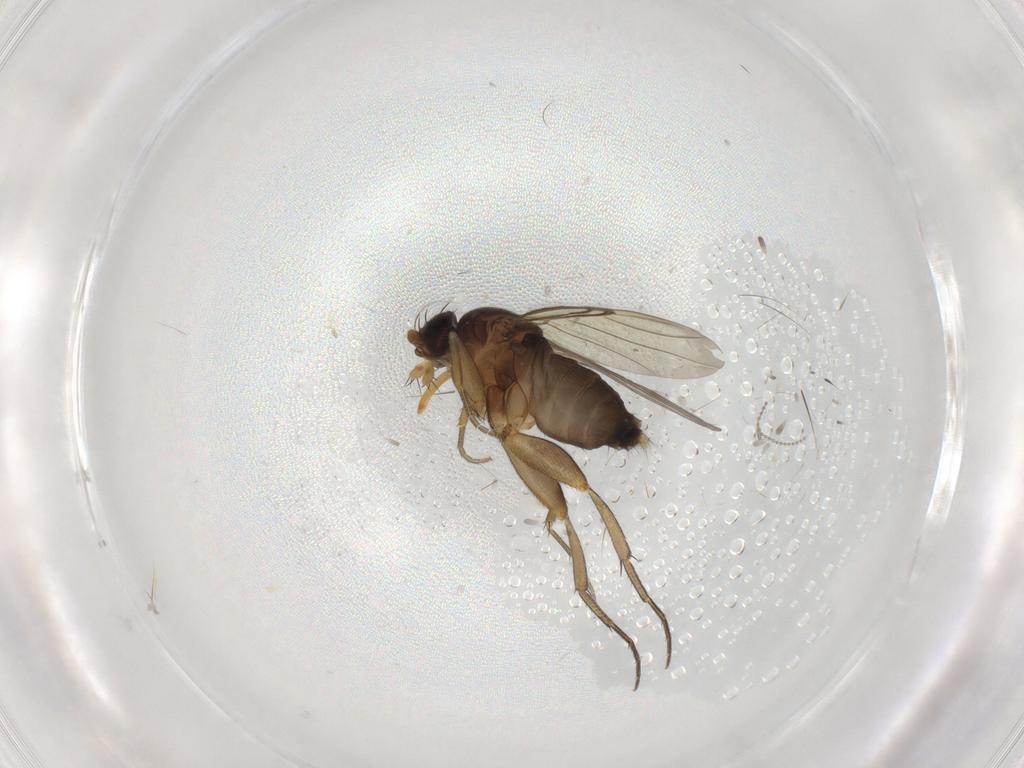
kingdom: Animalia
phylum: Arthropoda
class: Insecta
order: Diptera
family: Phoridae
